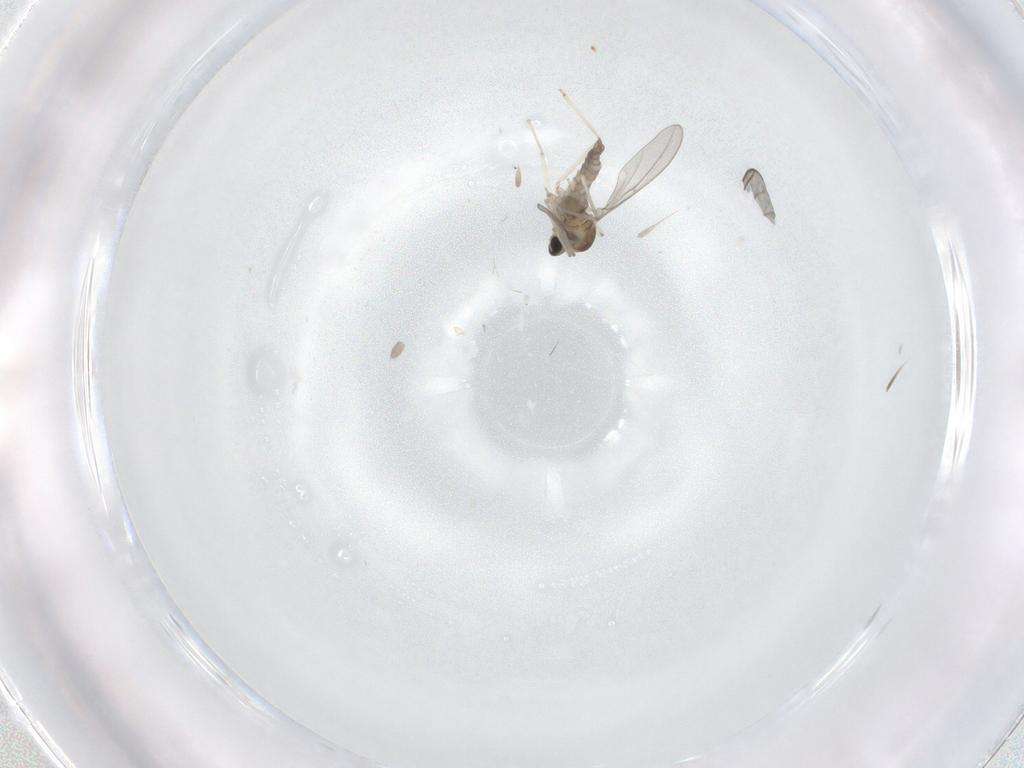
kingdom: Animalia
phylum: Arthropoda
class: Insecta
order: Diptera
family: Cecidomyiidae
